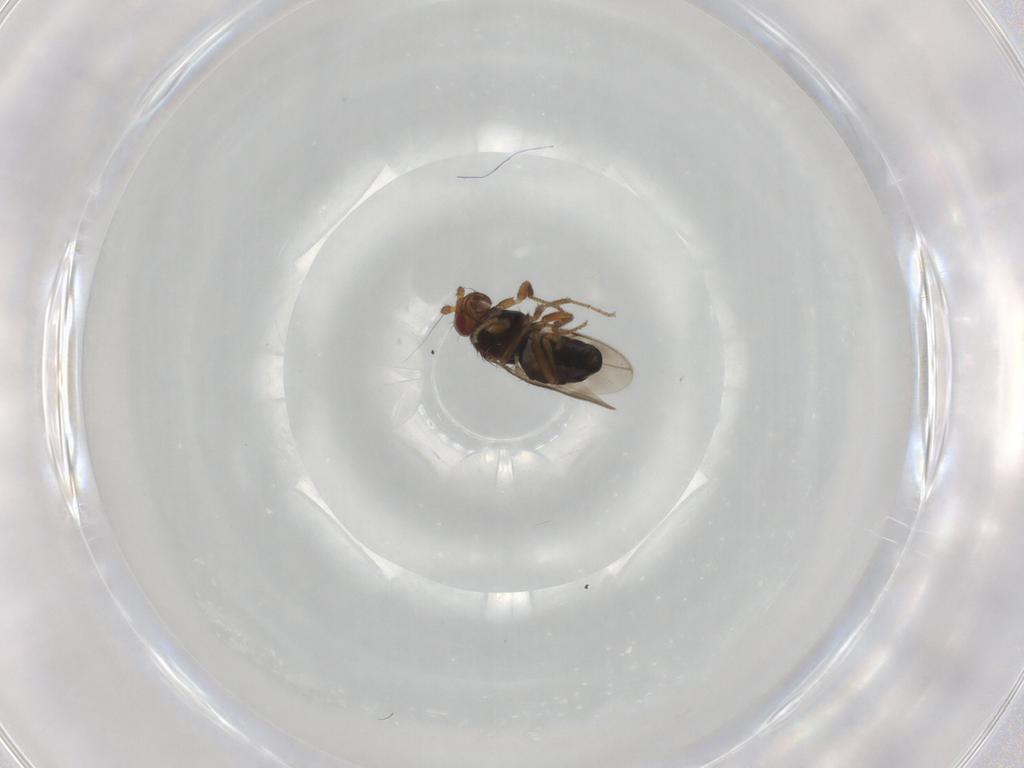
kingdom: Animalia
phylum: Arthropoda
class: Insecta
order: Diptera
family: Sphaeroceridae
